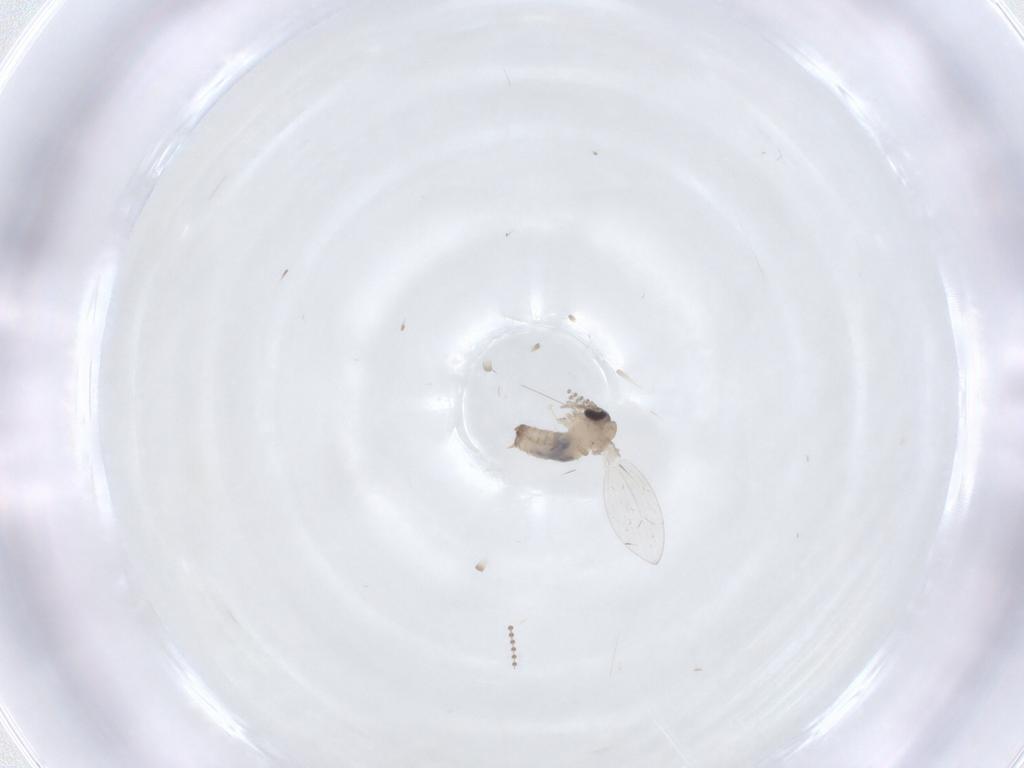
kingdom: Animalia
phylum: Arthropoda
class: Insecta
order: Diptera
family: Psychodidae
